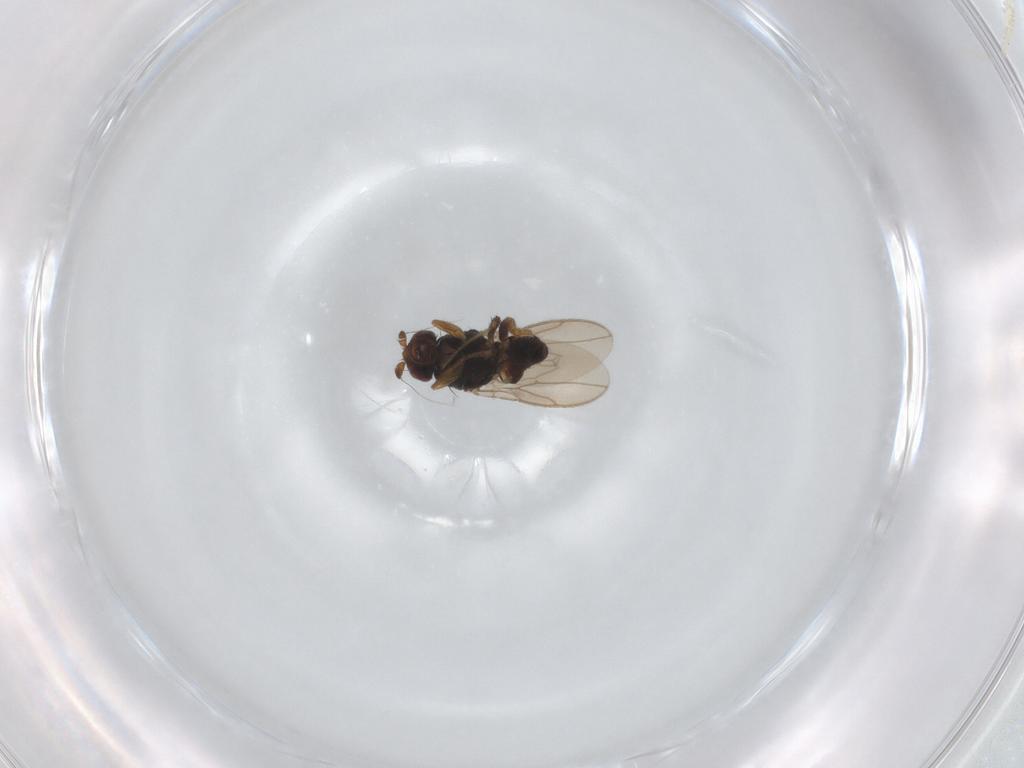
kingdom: Animalia
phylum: Arthropoda
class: Insecta
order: Diptera
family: Sphaeroceridae
